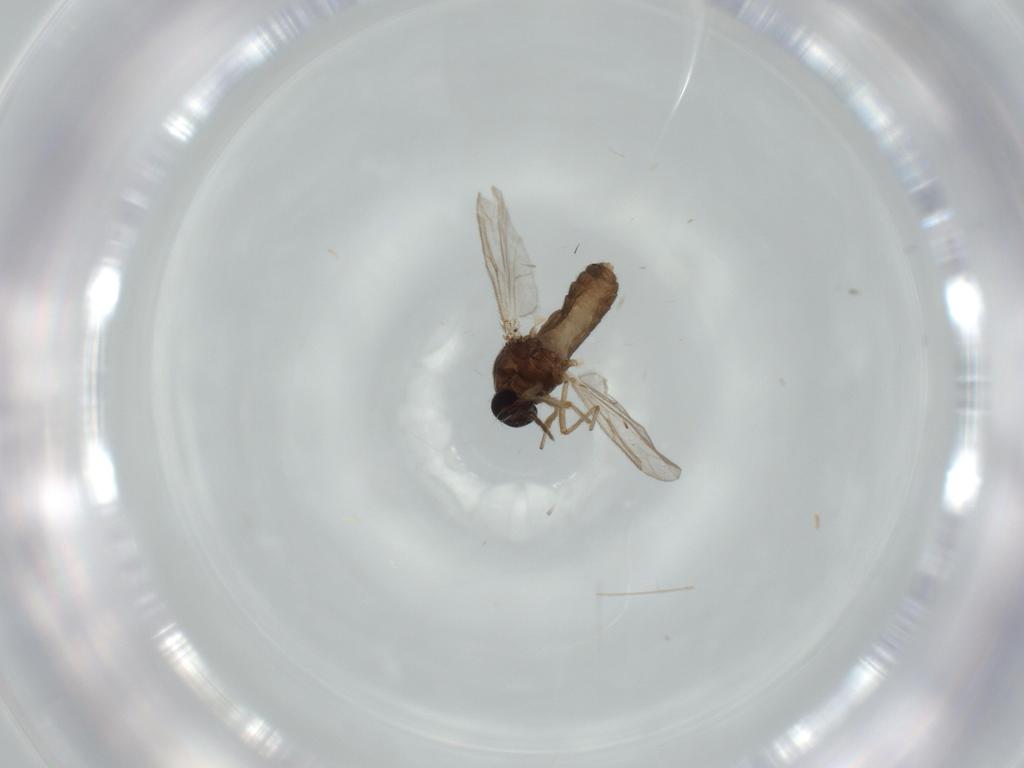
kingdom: Animalia
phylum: Arthropoda
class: Insecta
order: Diptera
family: Ceratopogonidae
